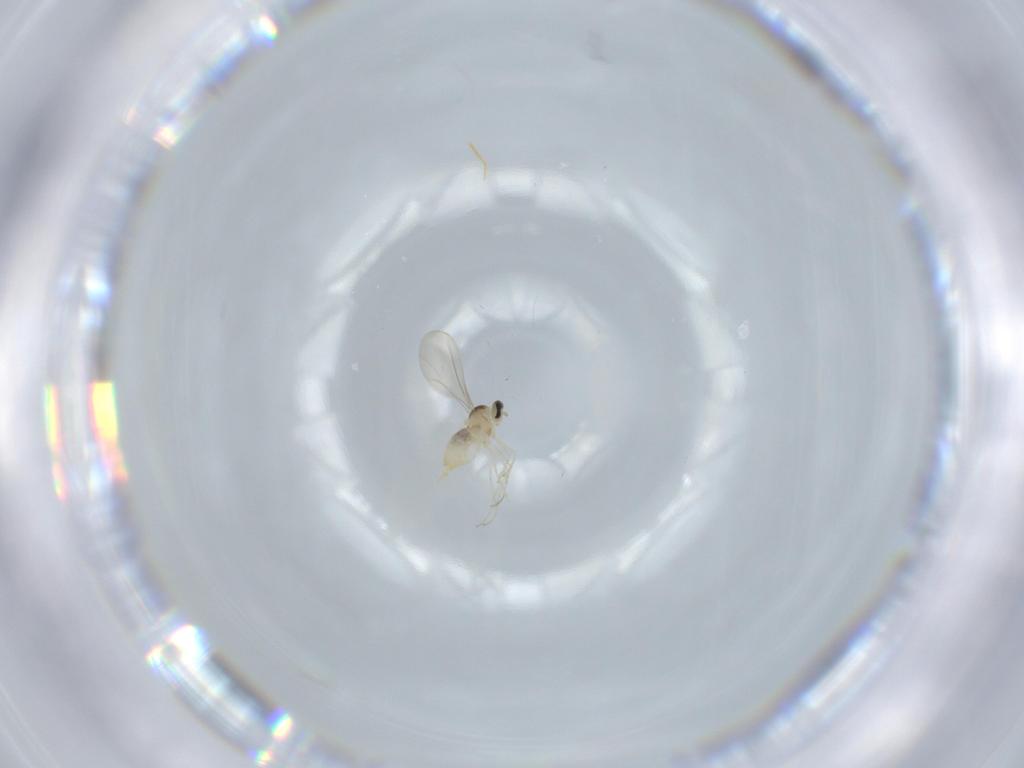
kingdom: Animalia
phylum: Arthropoda
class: Insecta
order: Diptera
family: Cecidomyiidae
